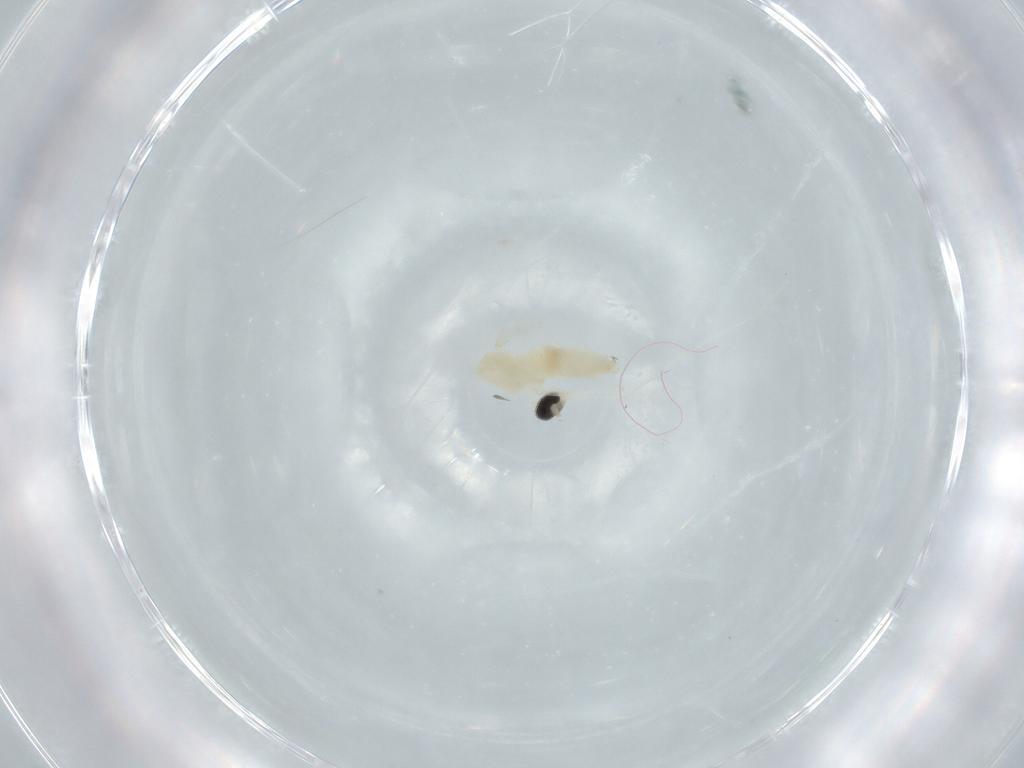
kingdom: Animalia
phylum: Arthropoda
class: Insecta
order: Diptera
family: Cecidomyiidae
